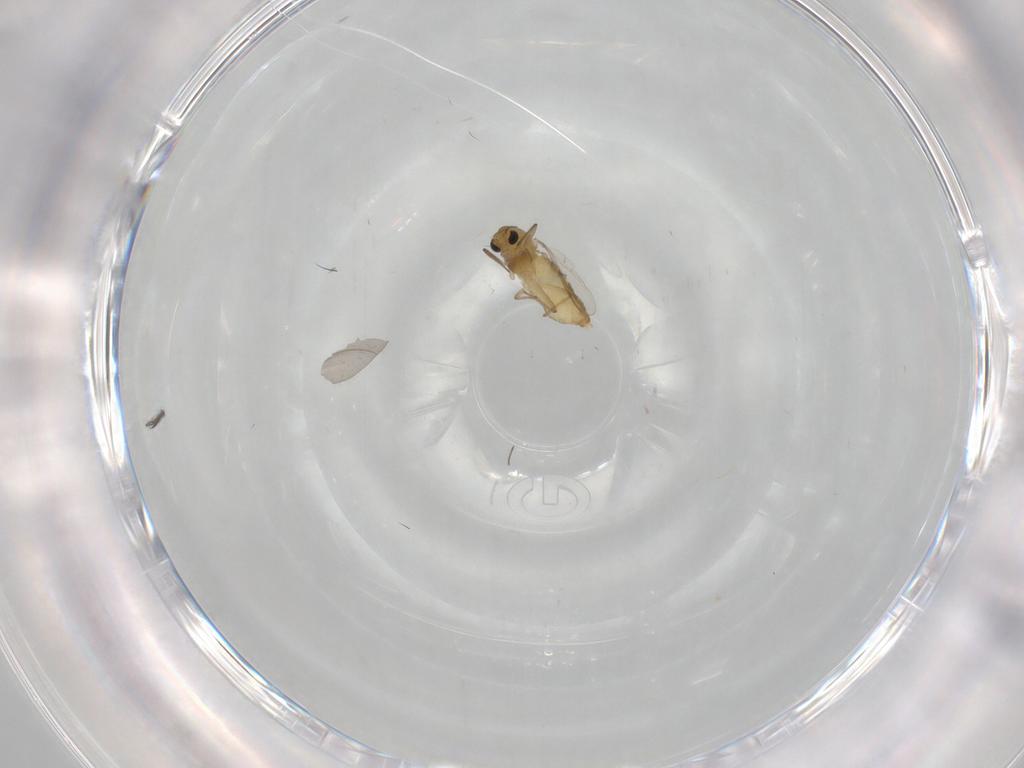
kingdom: Animalia
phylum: Arthropoda
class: Insecta
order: Diptera
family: Chironomidae
